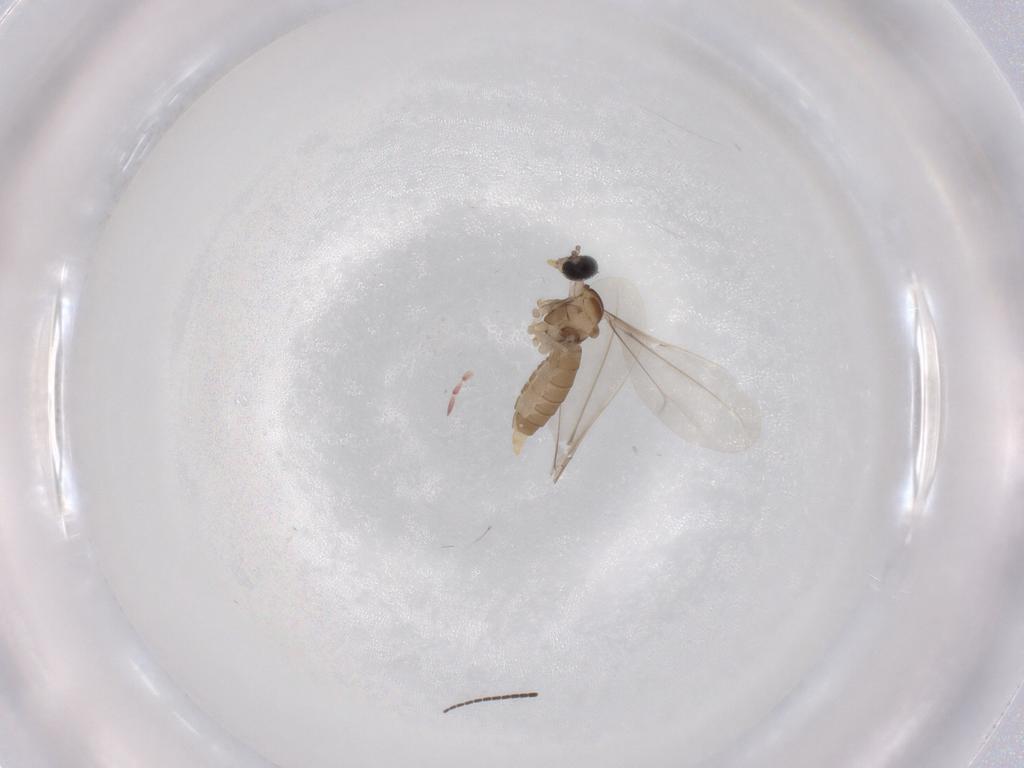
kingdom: Animalia
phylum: Arthropoda
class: Insecta
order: Diptera
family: Cecidomyiidae
